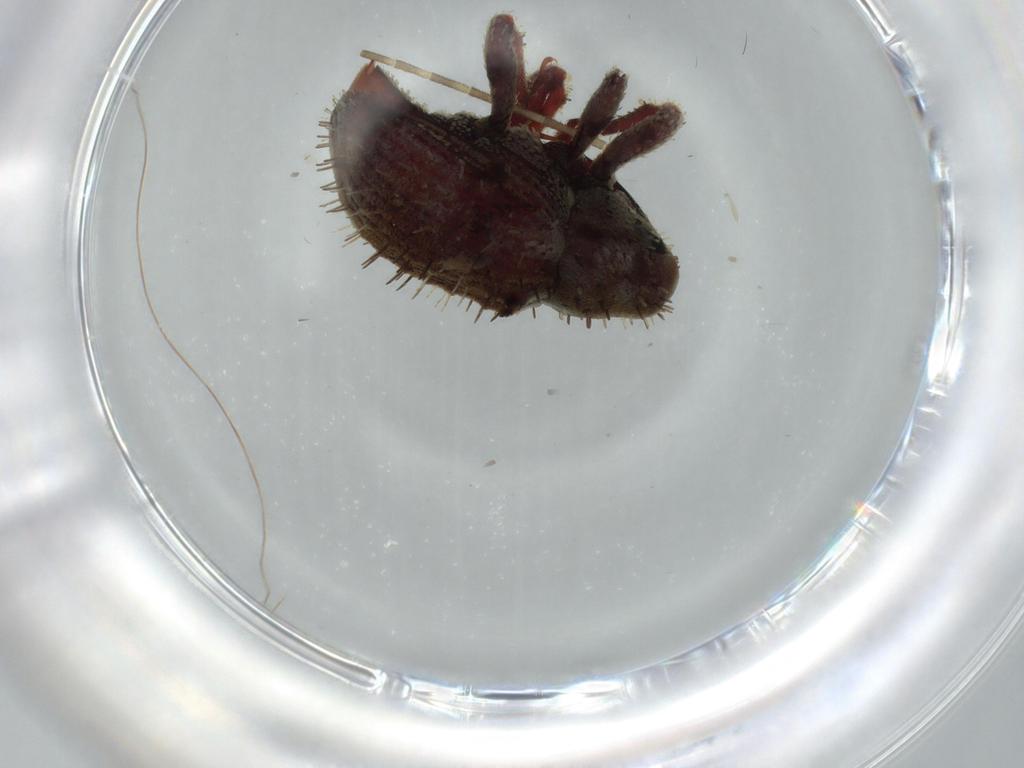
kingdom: Animalia
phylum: Arthropoda
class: Insecta
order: Coleoptera
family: Curculionidae
